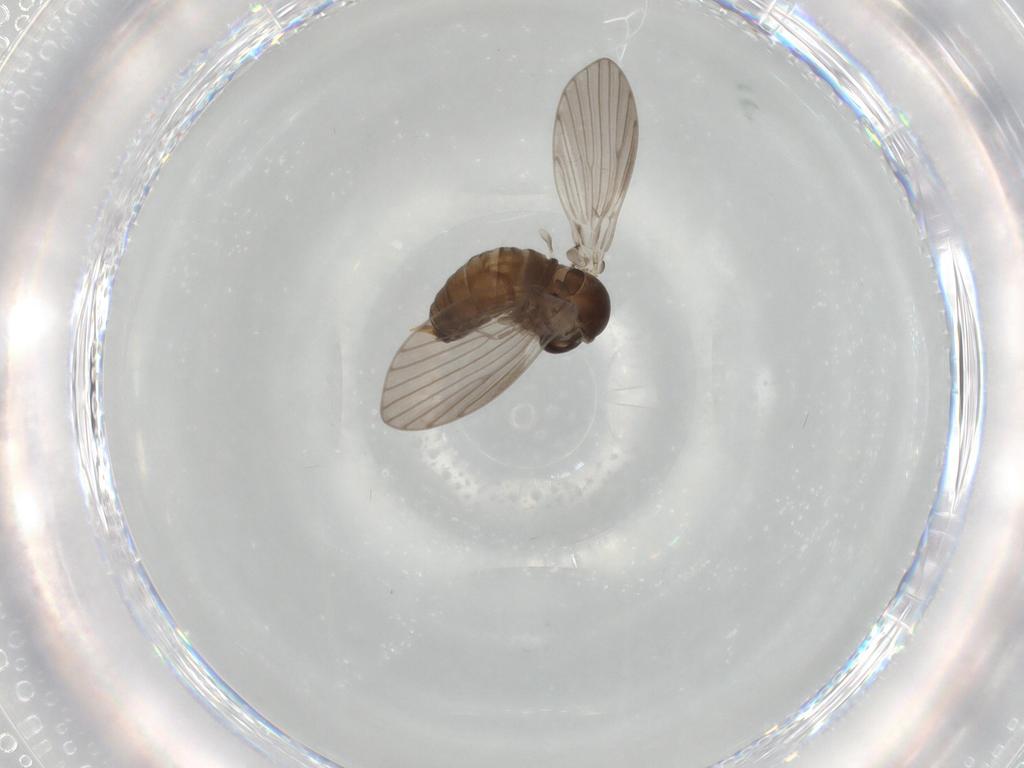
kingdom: Animalia
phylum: Arthropoda
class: Insecta
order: Diptera
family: Psychodidae
